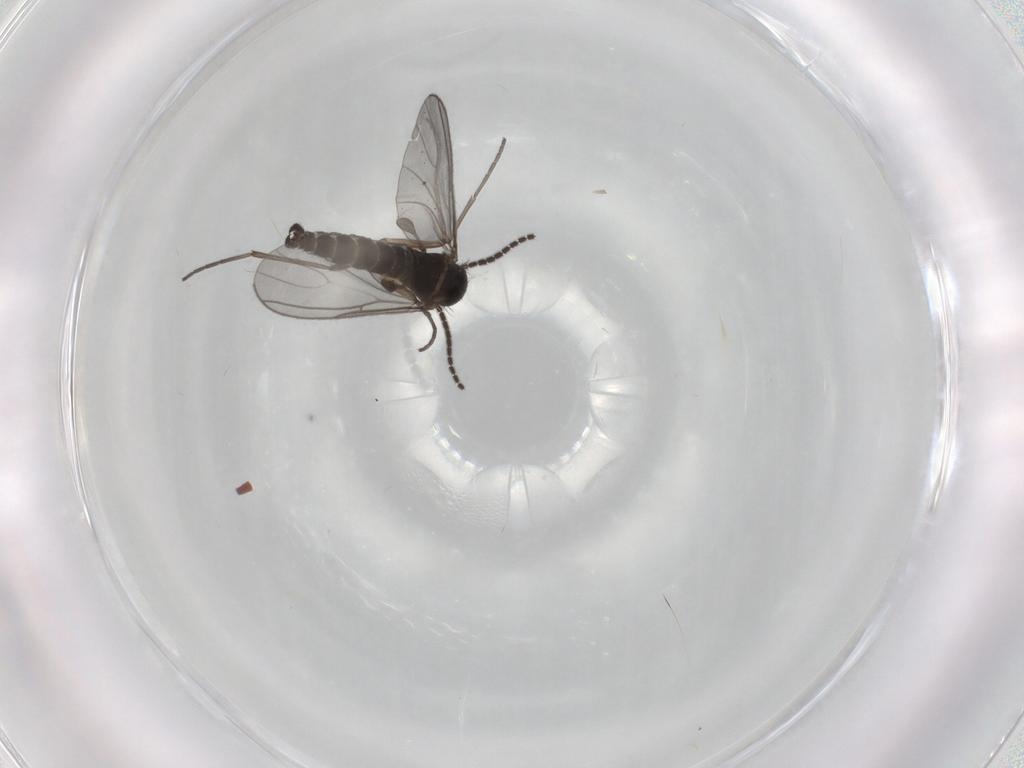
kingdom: Animalia
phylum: Arthropoda
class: Insecta
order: Diptera
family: Sciaridae
